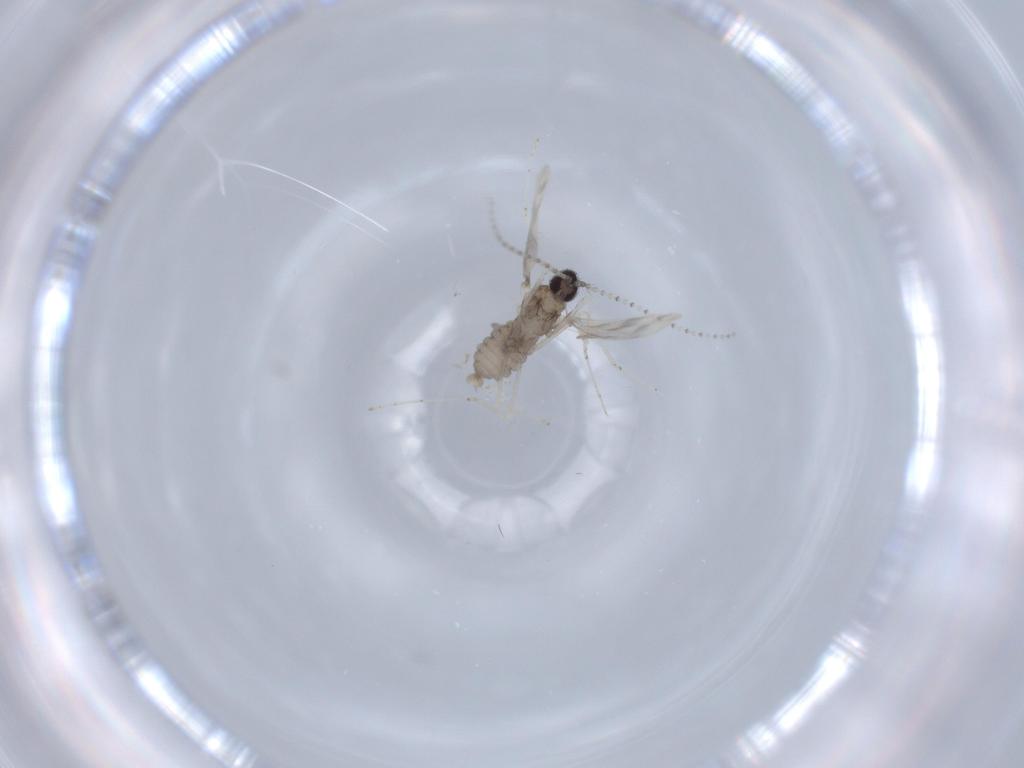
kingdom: Animalia
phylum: Arthropoda
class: Insecta
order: Diptera
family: Cecidomyiidae
